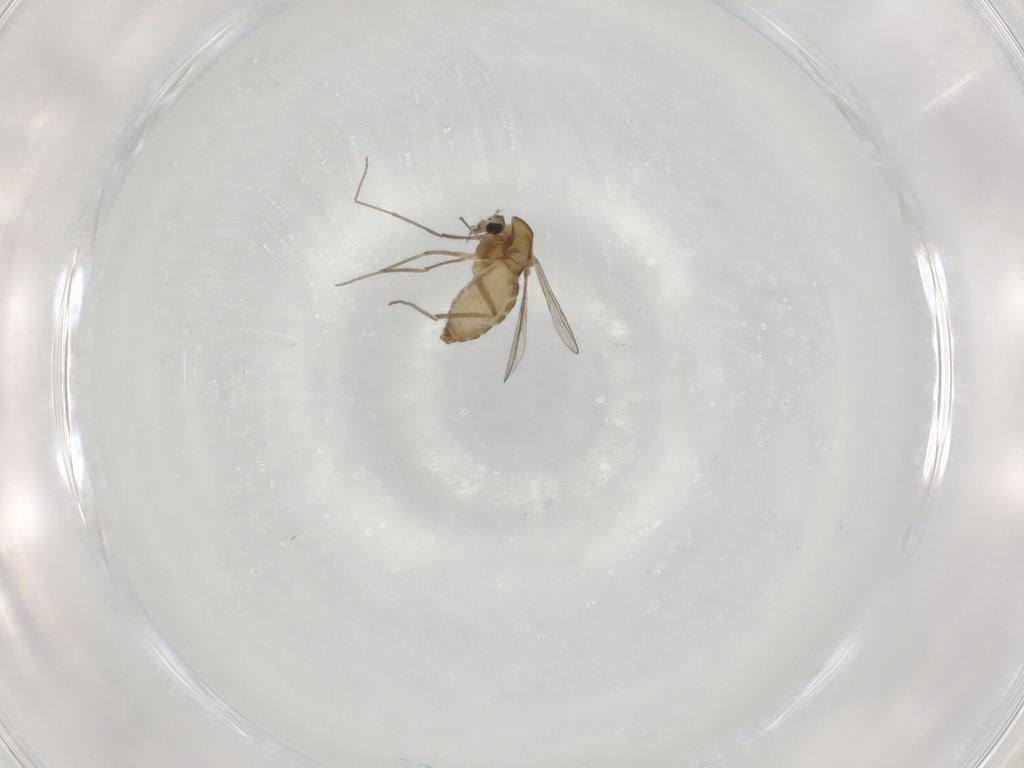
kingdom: Animalia
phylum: Arthropoda
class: Insecta
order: Diptera
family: Chironomidae
